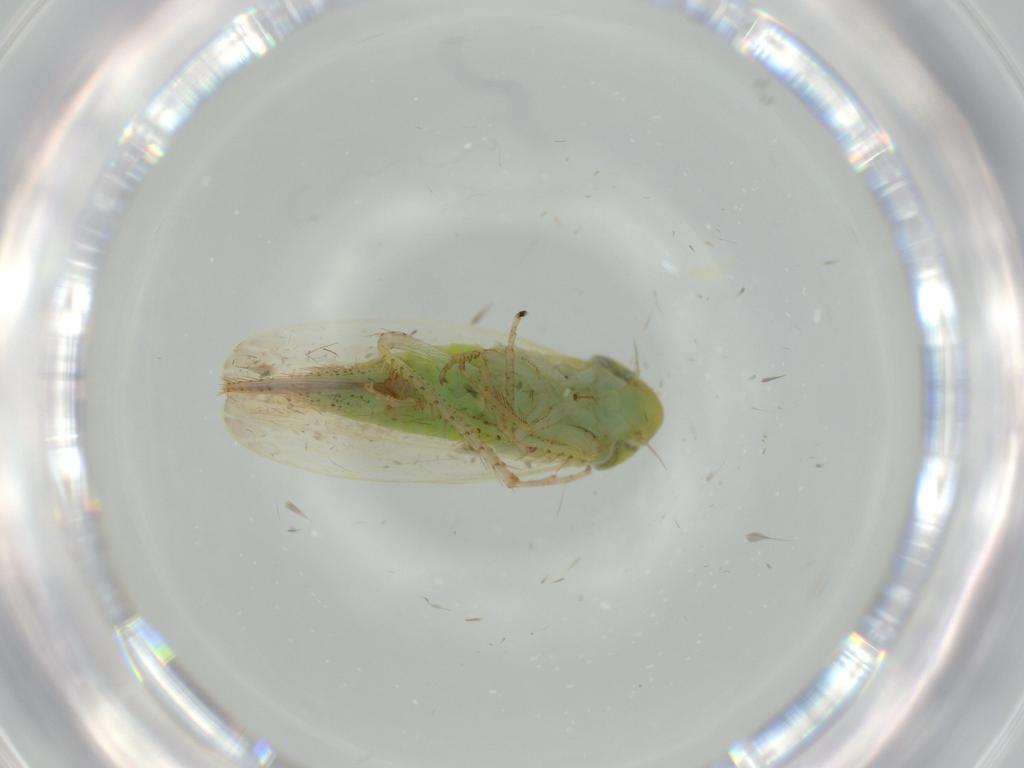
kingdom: Animalia
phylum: Arthropoda
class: Insecta
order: Hemiptera
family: Cicadellidae
